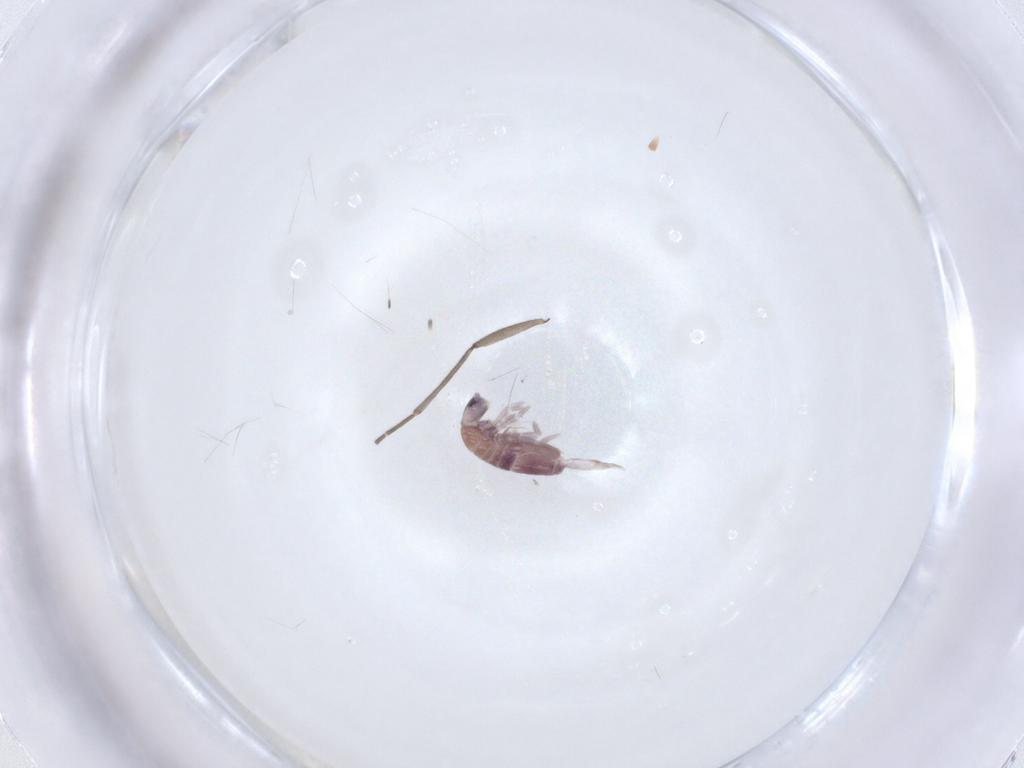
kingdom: Animalia
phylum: Arthropoda
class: Collembola
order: Entomobryomorpha
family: Entomobryidae
